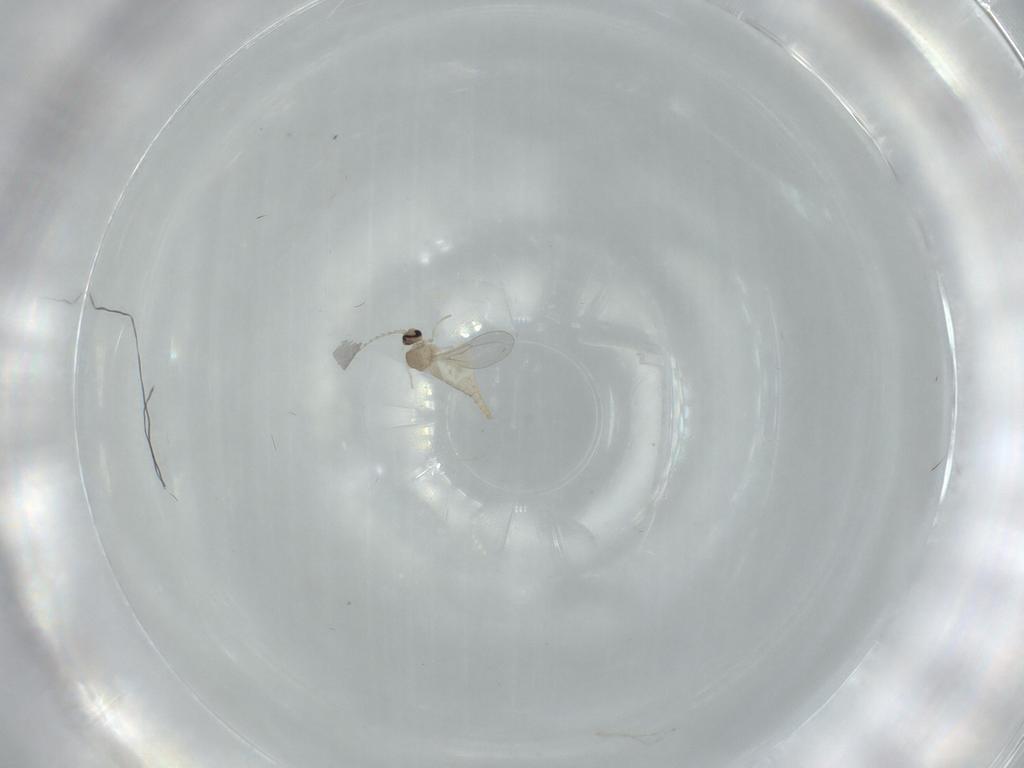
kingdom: Animalia
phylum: Arthropoda
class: Insecta
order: Diptera
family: Cecidomyiidae
